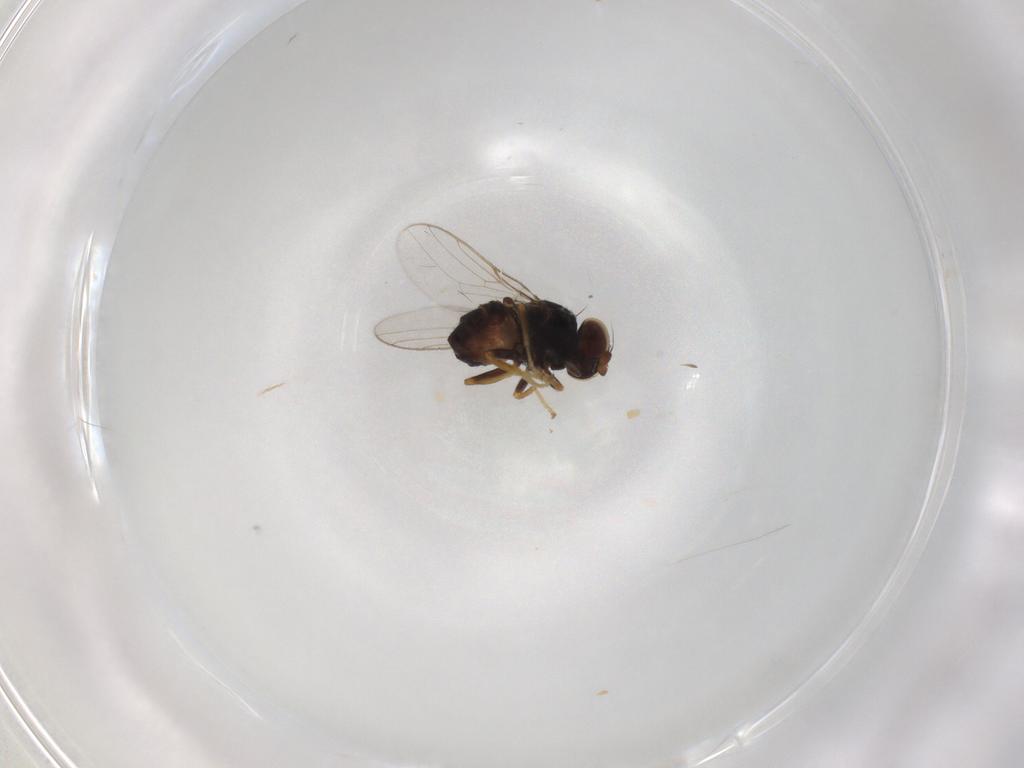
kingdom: Animalia
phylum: Arthropoda
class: Insecta
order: Diptera
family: Chloropidae
